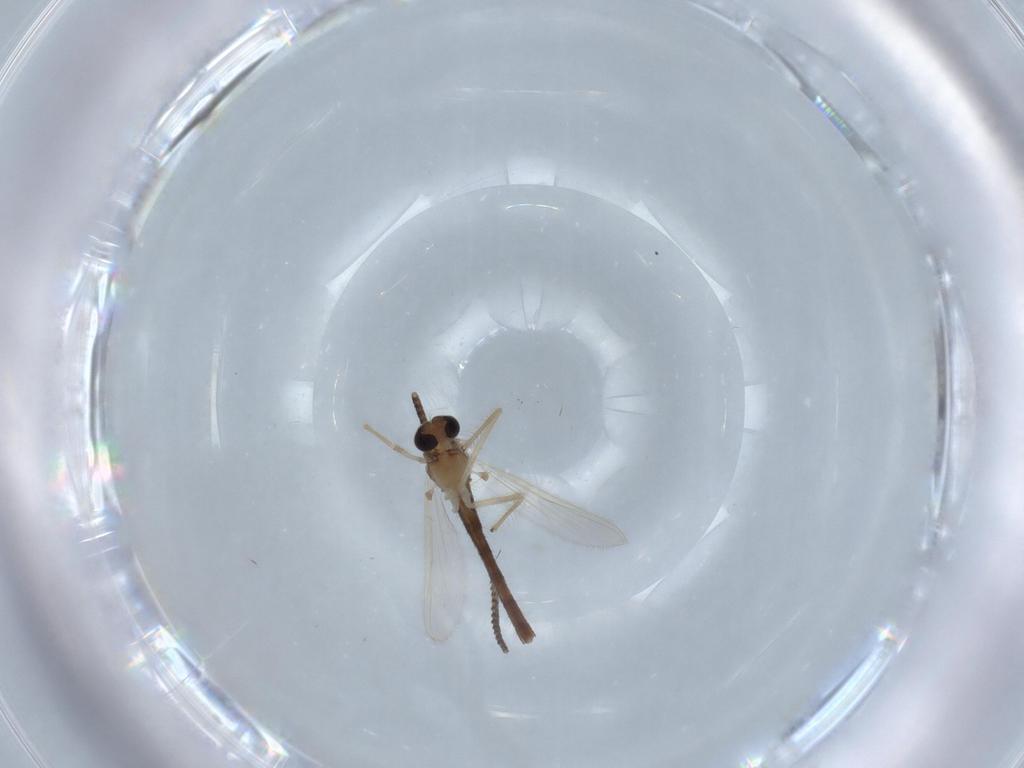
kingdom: Animalia
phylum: Arthropoda
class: Insecta
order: Diptera
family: Chironomidae
